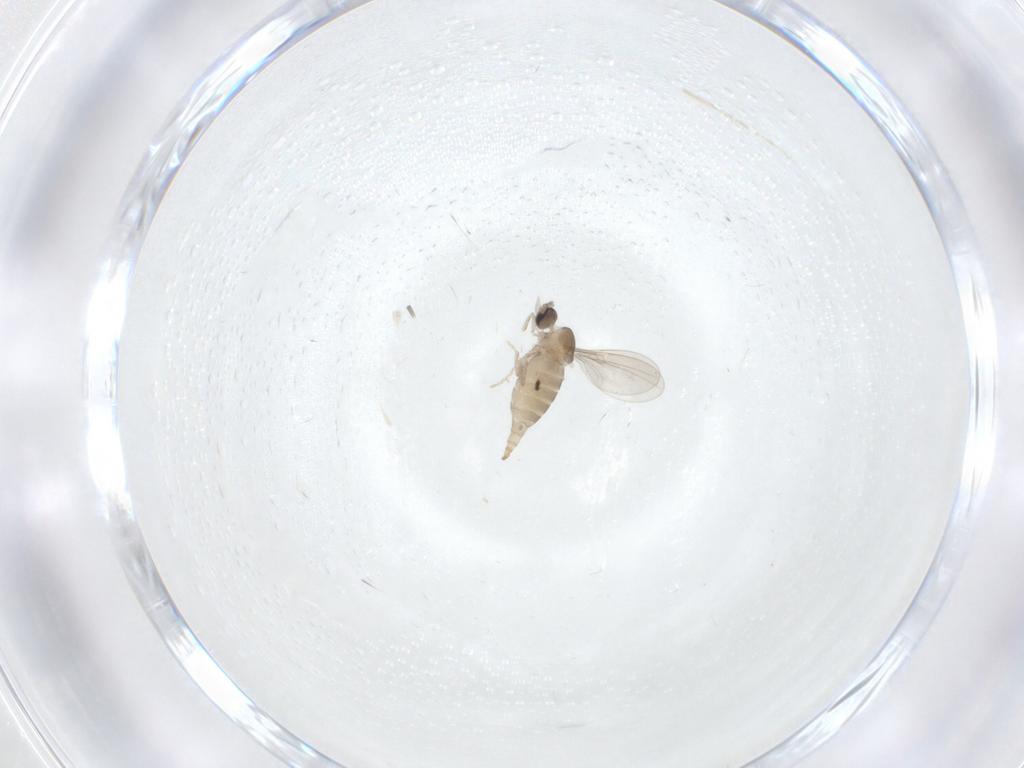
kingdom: Animalia
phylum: Arthropoda
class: Insecta
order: Diptera
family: Cecidomyiidae
